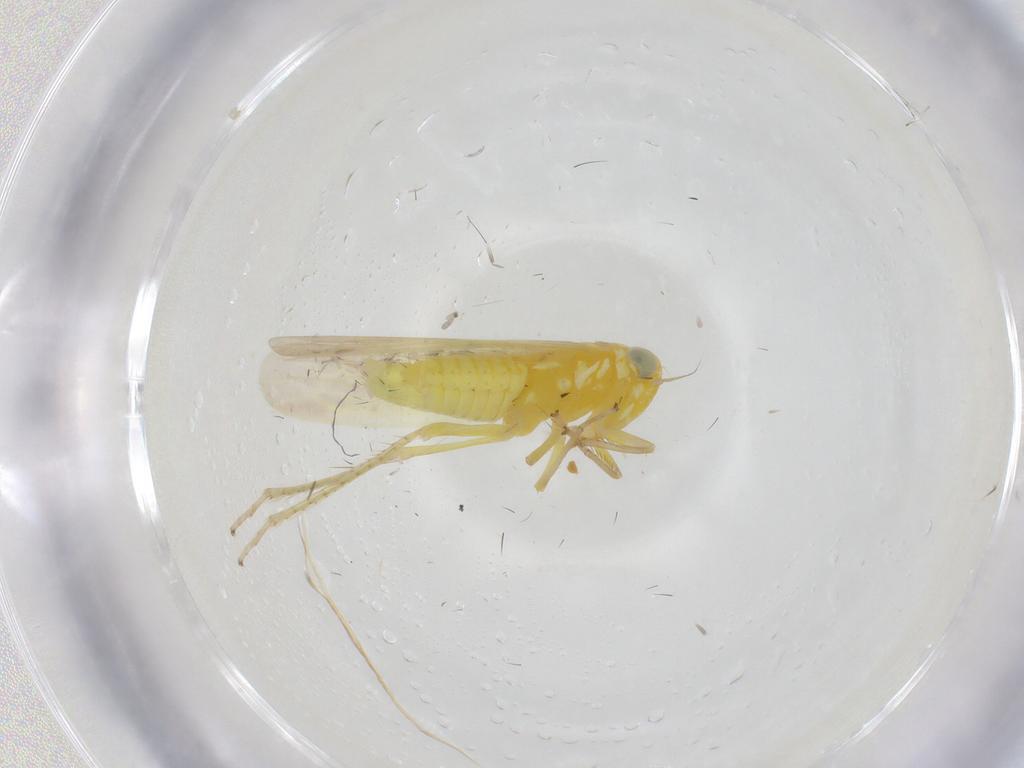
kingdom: Animalia
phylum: Arthropoda
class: Insecta
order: Hemiptera
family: Cicadellidae
